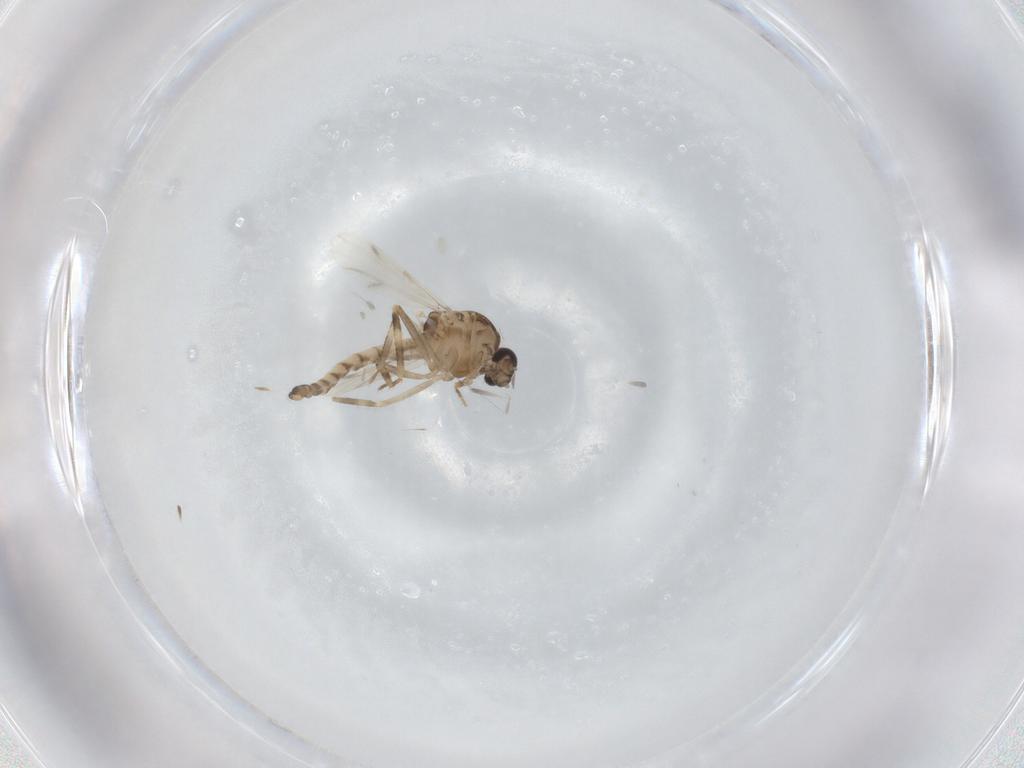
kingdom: Animalia
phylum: Arthropoda
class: Insecta
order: Diptera
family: Ceratopogonidae
